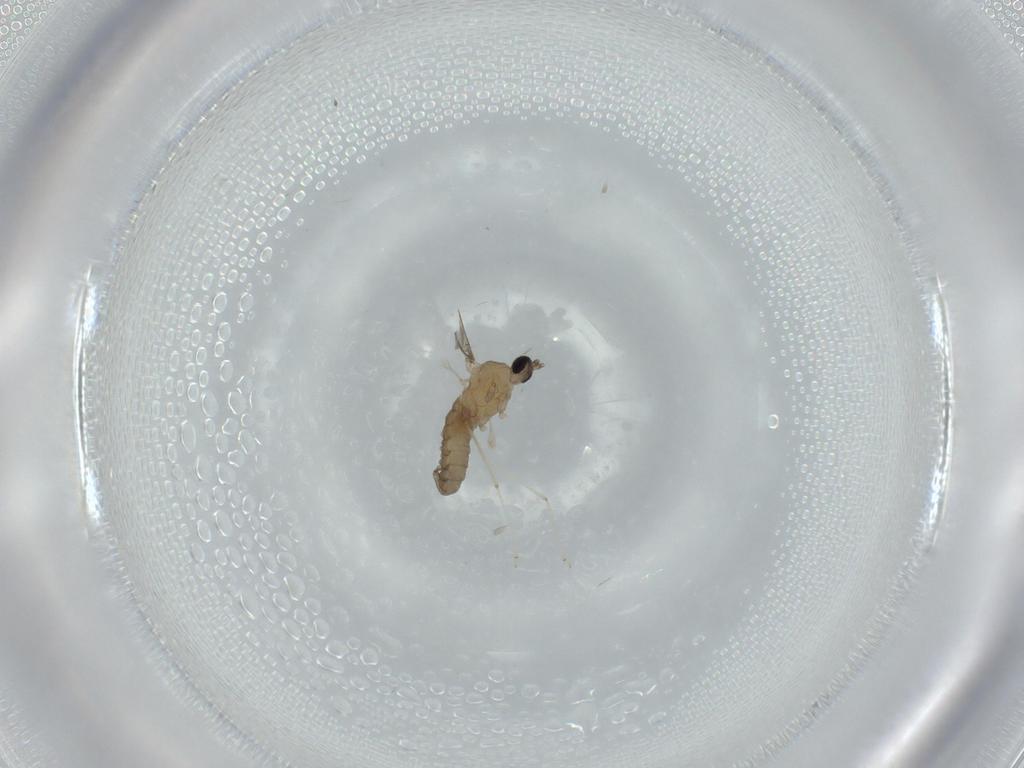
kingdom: Animalia
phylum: Arthropoda
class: Insecta
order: Diptera
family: Cecidomyiidae
